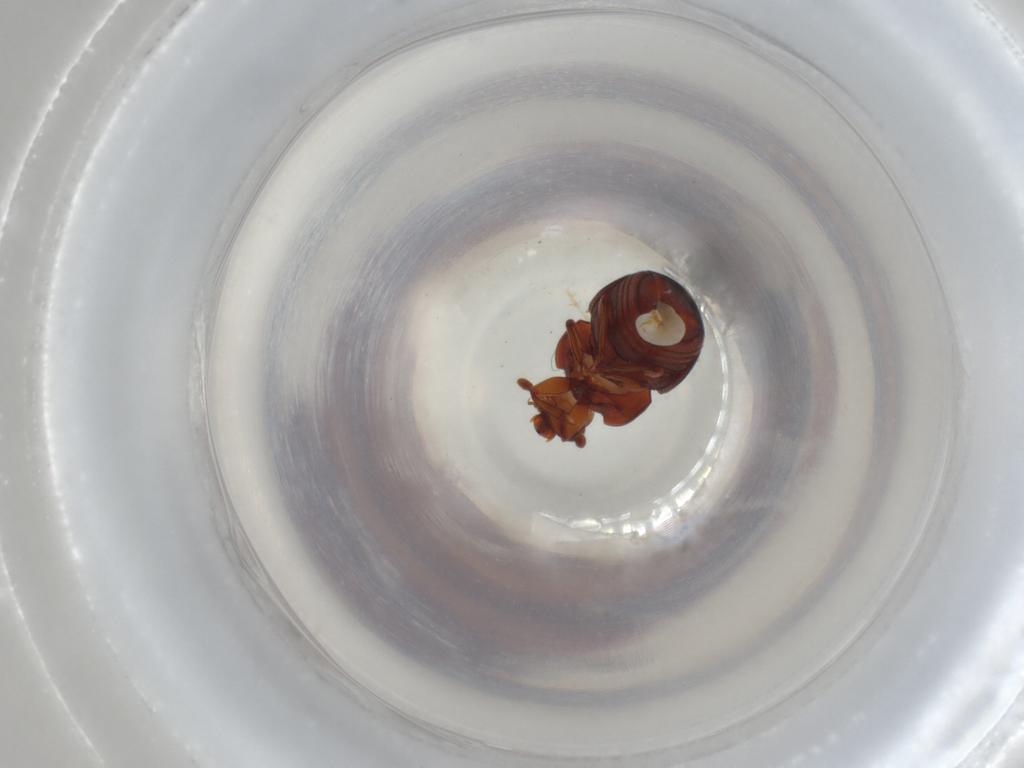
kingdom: Animalia
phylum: Arthropoda
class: Insecta
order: Coleoptera
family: Nitidulidae
